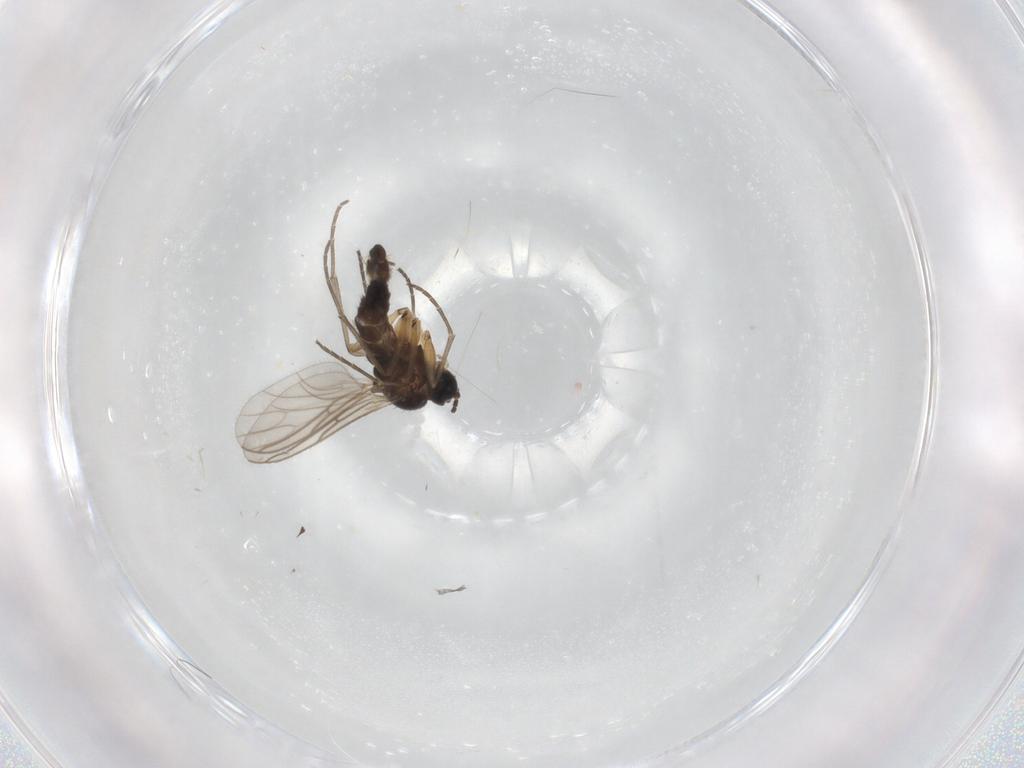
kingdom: Animalia
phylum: Arthropoda
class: Insecta
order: Diptera
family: Sciaridae
